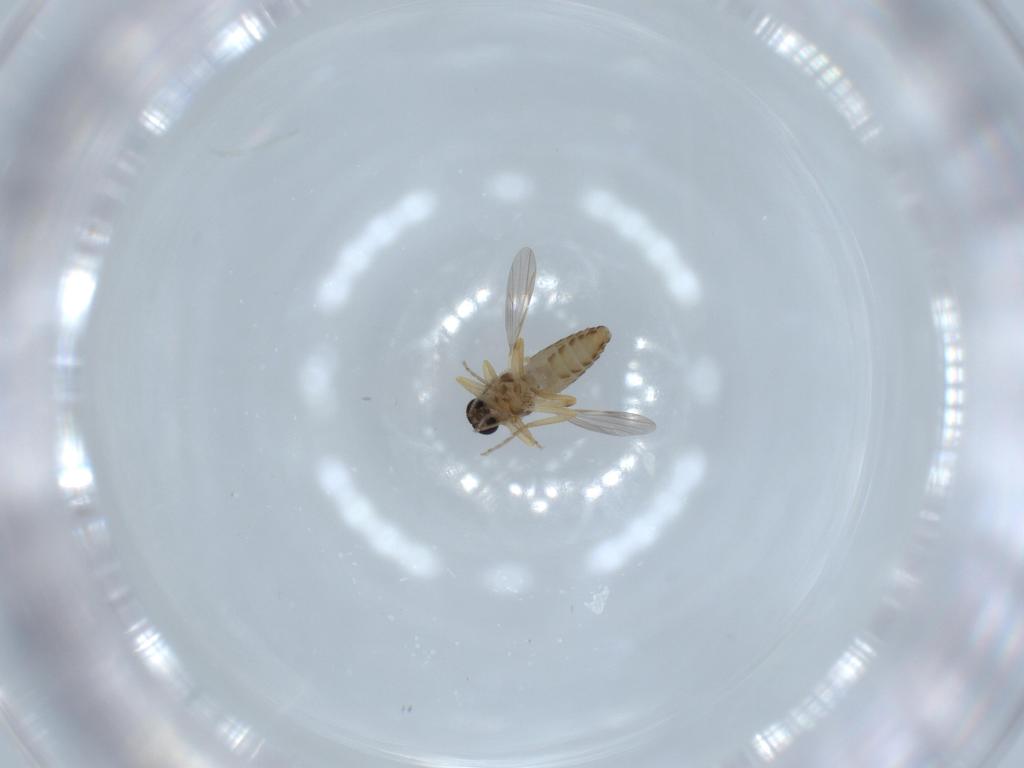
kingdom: Animalia
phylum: Arthropoda
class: Insecta
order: Diptera
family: Ceratopogonidae
